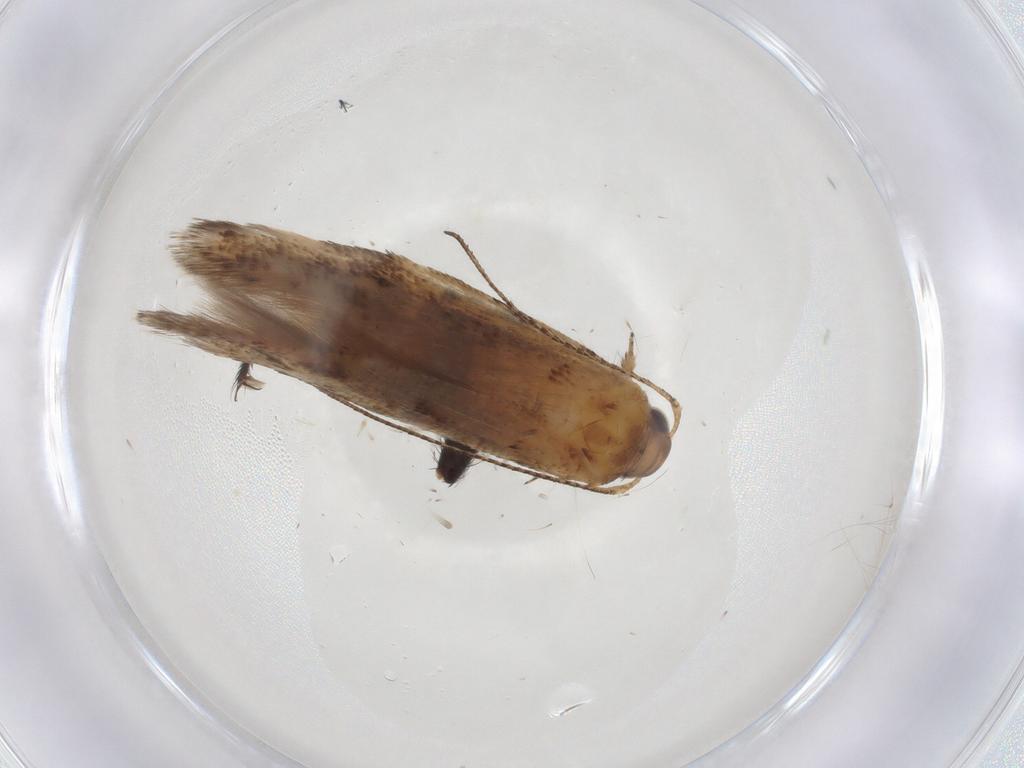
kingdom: Animalia
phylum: Arthropoda
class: Insecta
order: Lepidoptera
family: Gelechiidae
